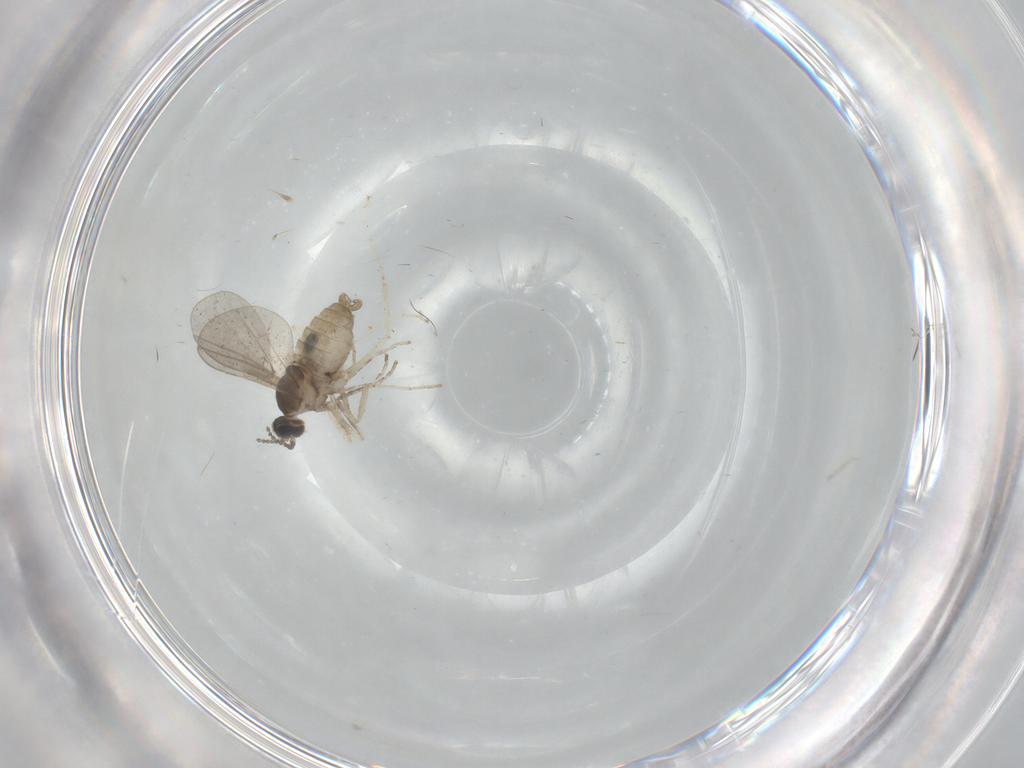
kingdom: Animalia
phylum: Arthropoda
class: Insecta
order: Diptera
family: Cecidomyiidae
